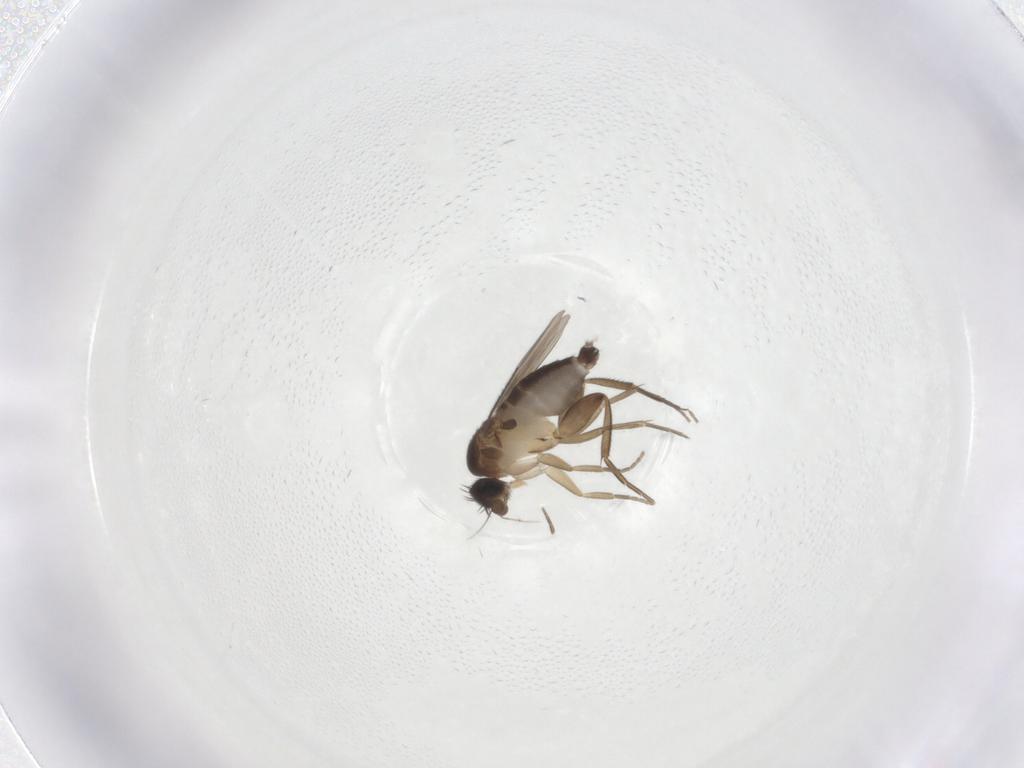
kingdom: Animalia
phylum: Arthropoda
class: Insecta
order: Diptera
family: Phoridae
